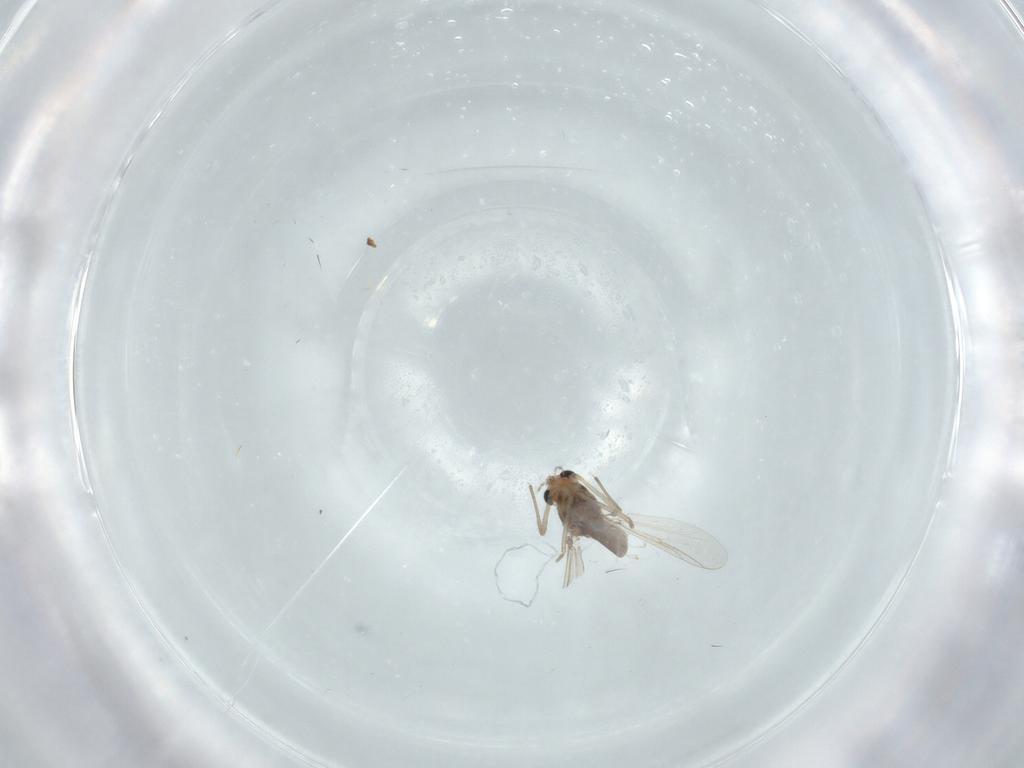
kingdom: Animalia
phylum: Arthropoda
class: Insecta
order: Diptera
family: Chironomidae
